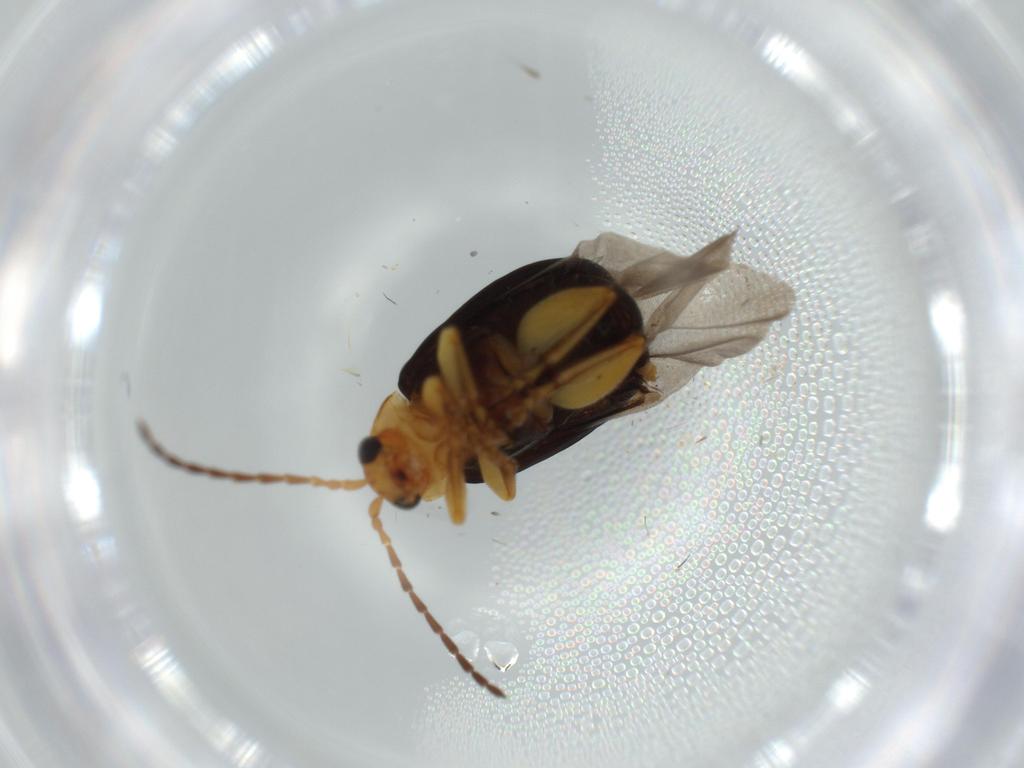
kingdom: Animalia
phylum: Arthropoda
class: Insecta
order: Coleoptera
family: Chrysomelidae
